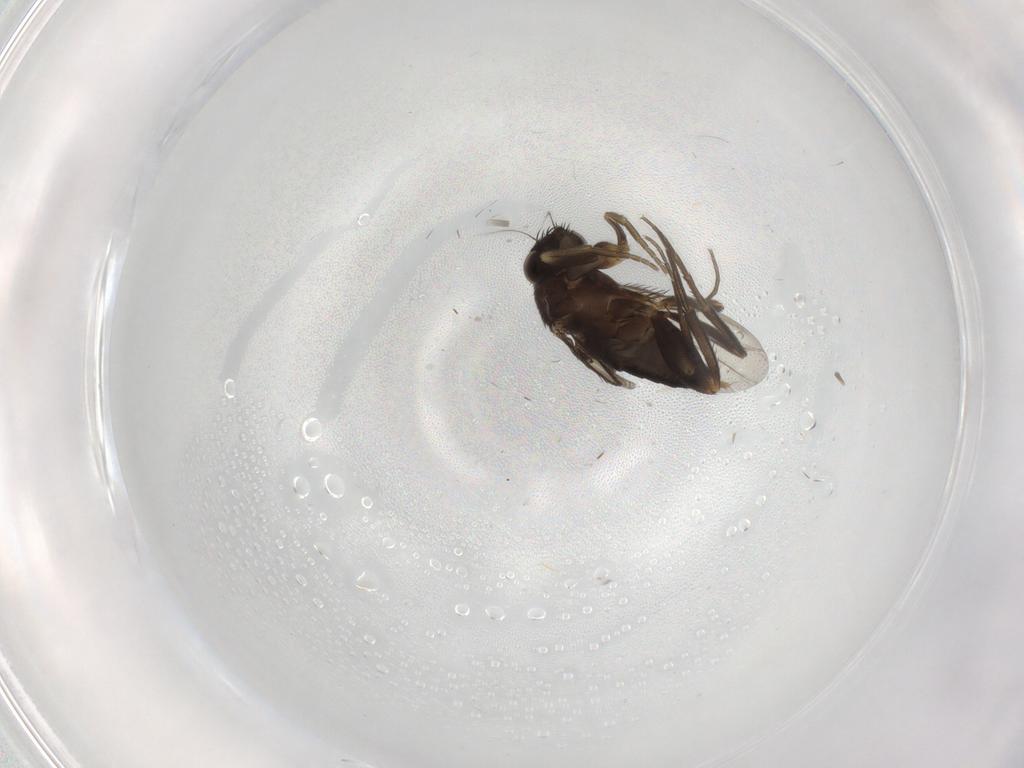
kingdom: Animalia
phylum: Arthropoda
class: Insecta
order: Diptera
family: Phoridae
